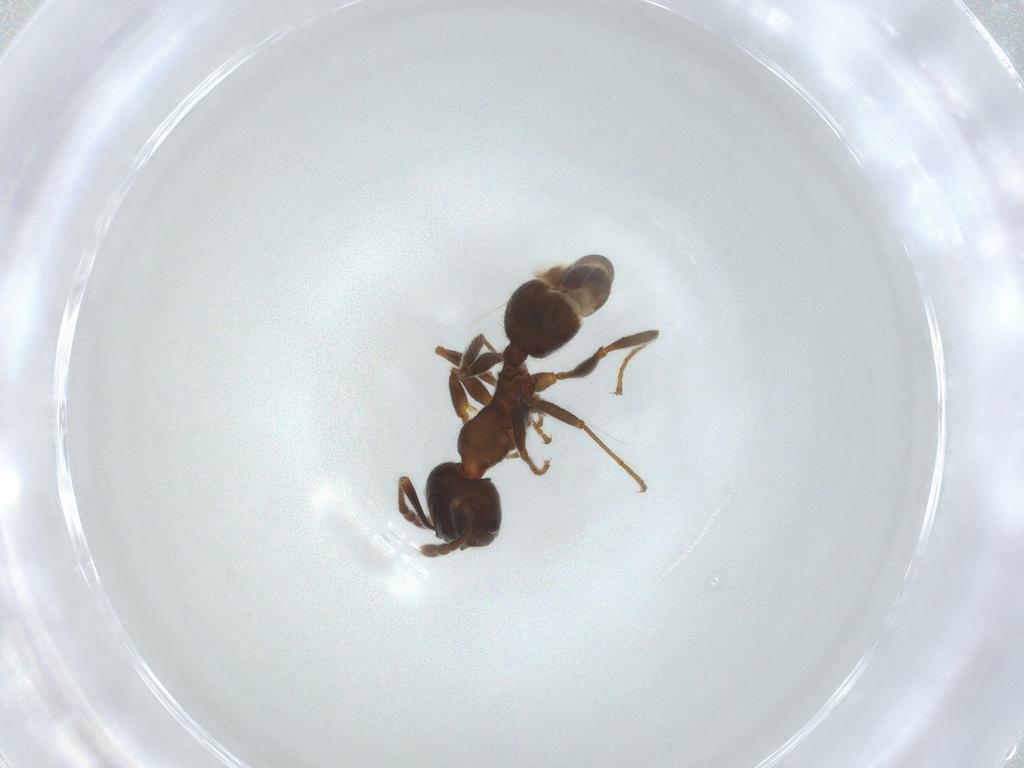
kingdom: Animalia
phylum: Arthropoda
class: Insecta
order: Hymenoptera
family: Formicidae
